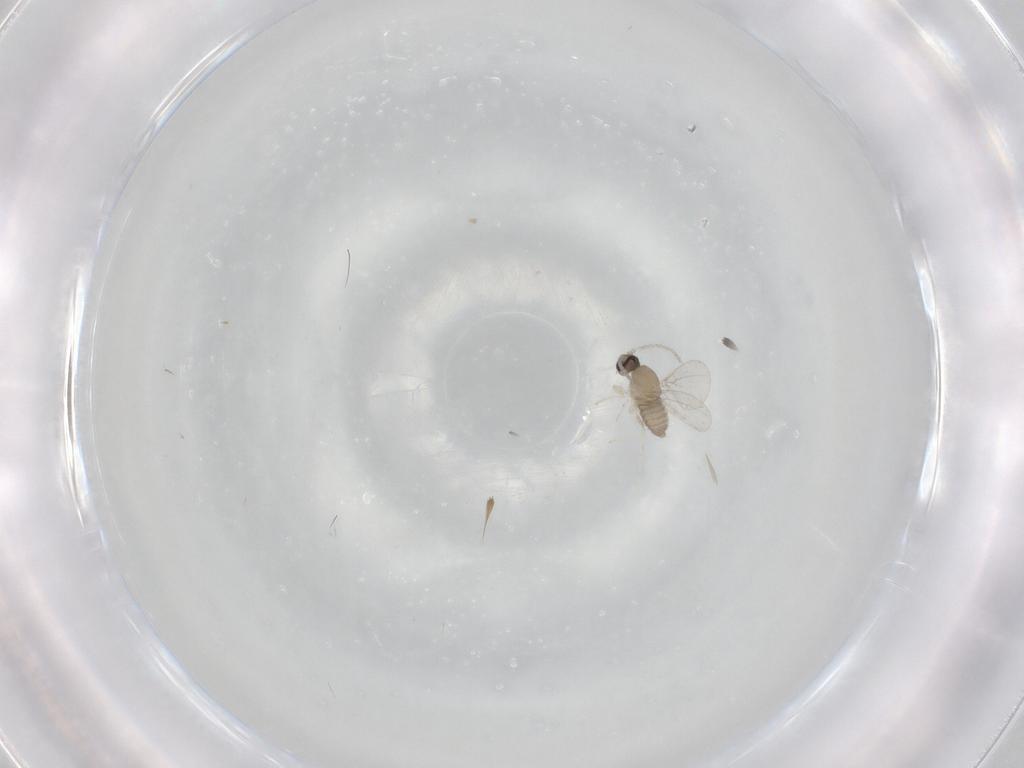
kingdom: Animalia
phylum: Arthropoda
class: Insecta
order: Diptera
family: Cecidomyiidae
